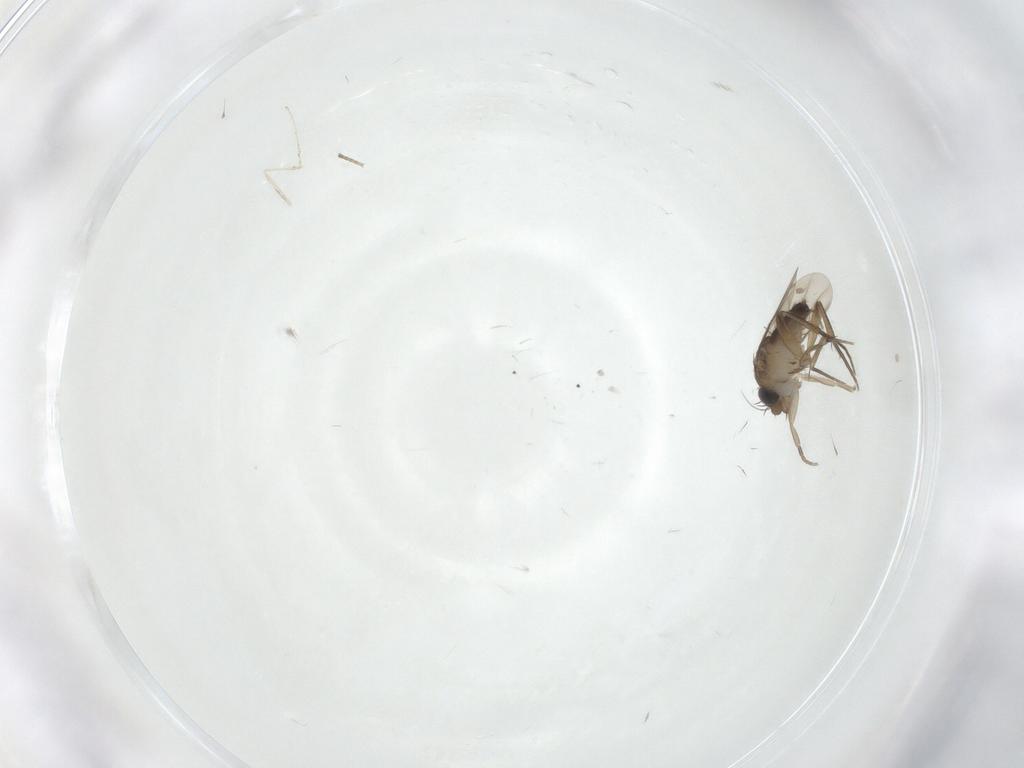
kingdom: Animalia
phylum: Arthropoda
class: Insecta
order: Diptera
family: Phoridae
